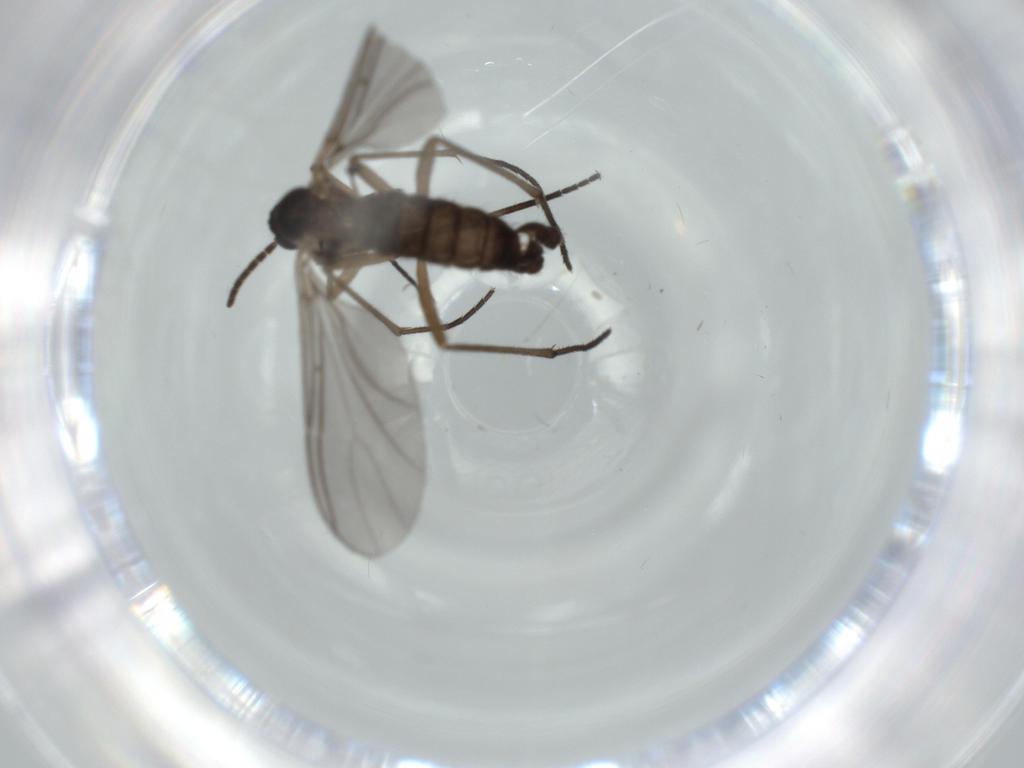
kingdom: Animalia
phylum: Arthropoda
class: Insecta
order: Diptera
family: Sciaridae
